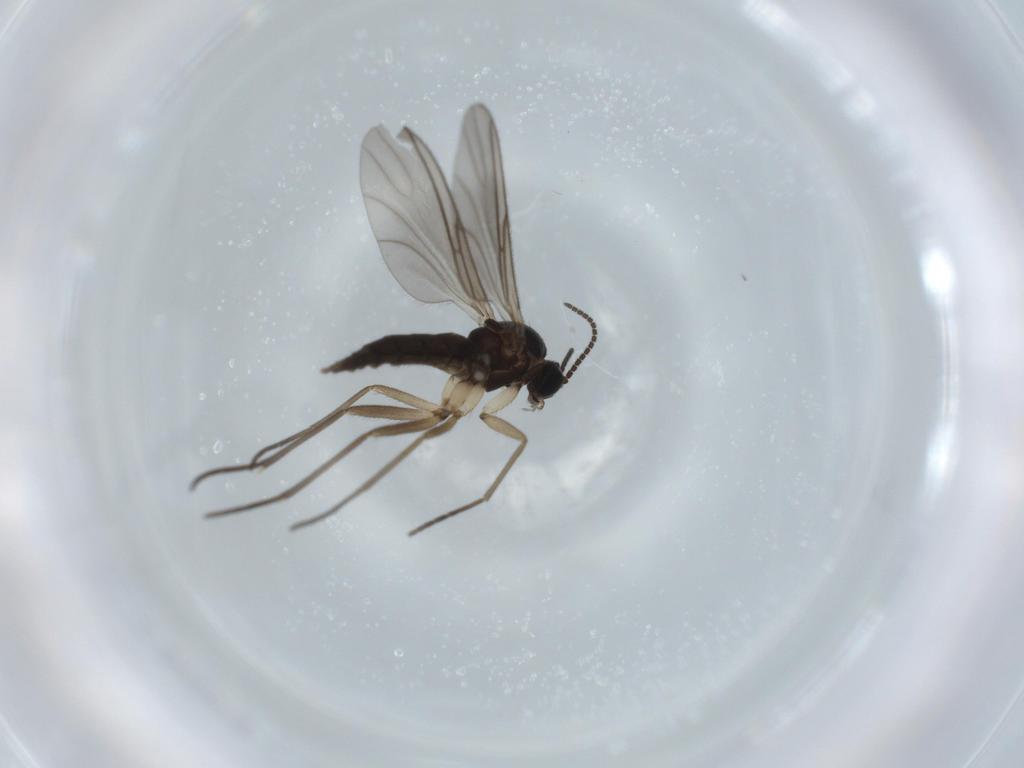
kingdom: Animalia
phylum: Arthropoda
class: Insecta
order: Diptera
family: Sciaridae
